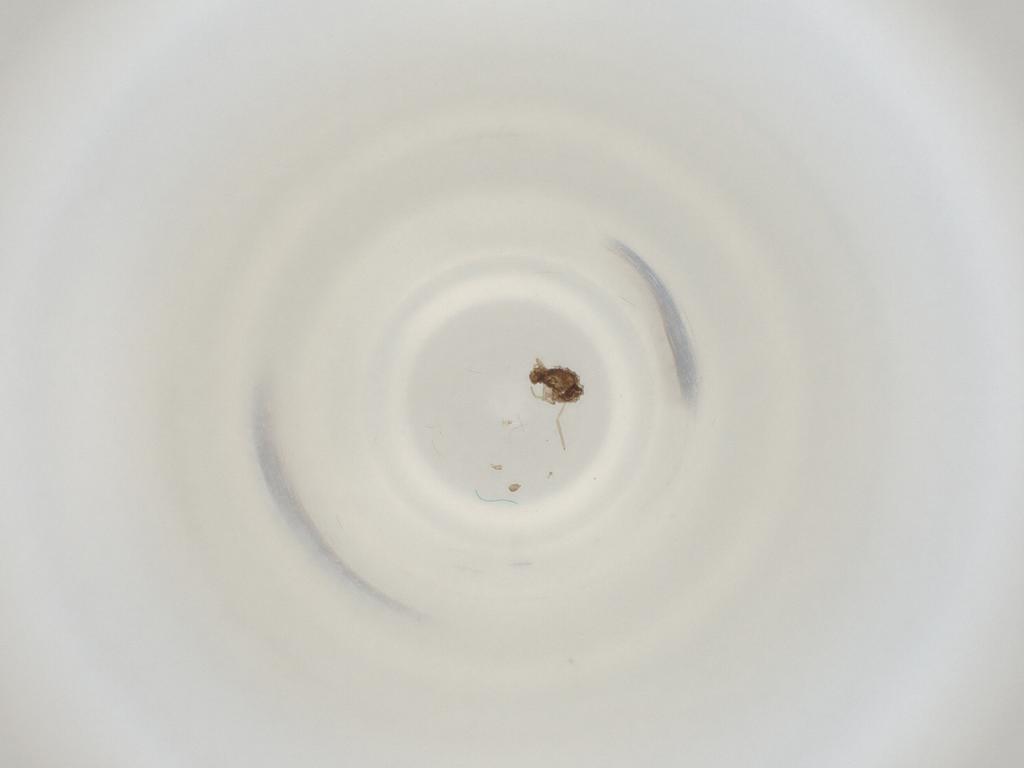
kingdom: Animalia
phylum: Arthropoda
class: Insecta
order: Diptera
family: Cecidomyiidae
